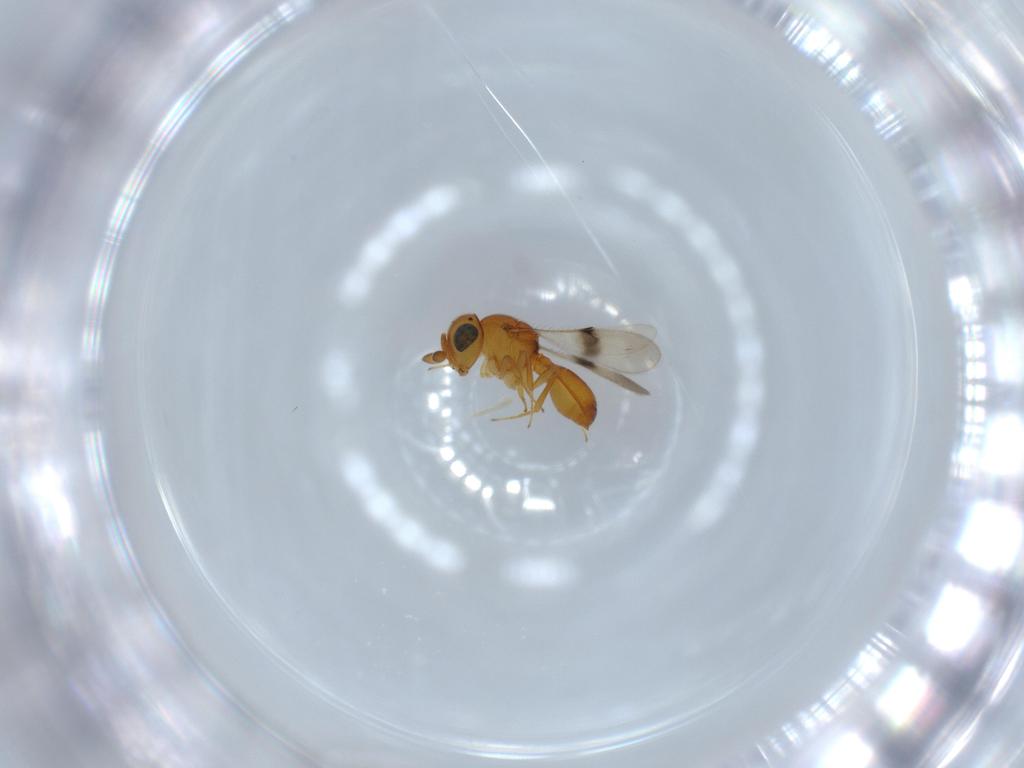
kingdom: Animalia
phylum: Arthropoda
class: Insecta
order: Hymenoptera
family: Scelionidae
